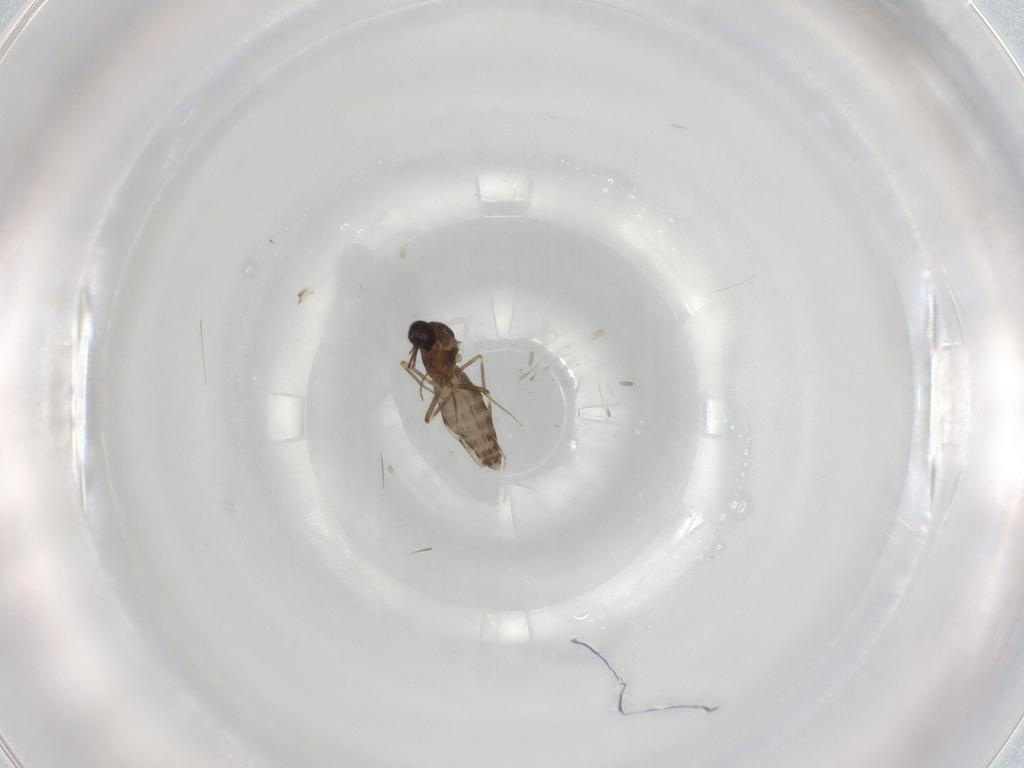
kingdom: Animalia
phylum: Arthropoda
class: Insecta
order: Diptera
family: Ceratopogonidae
